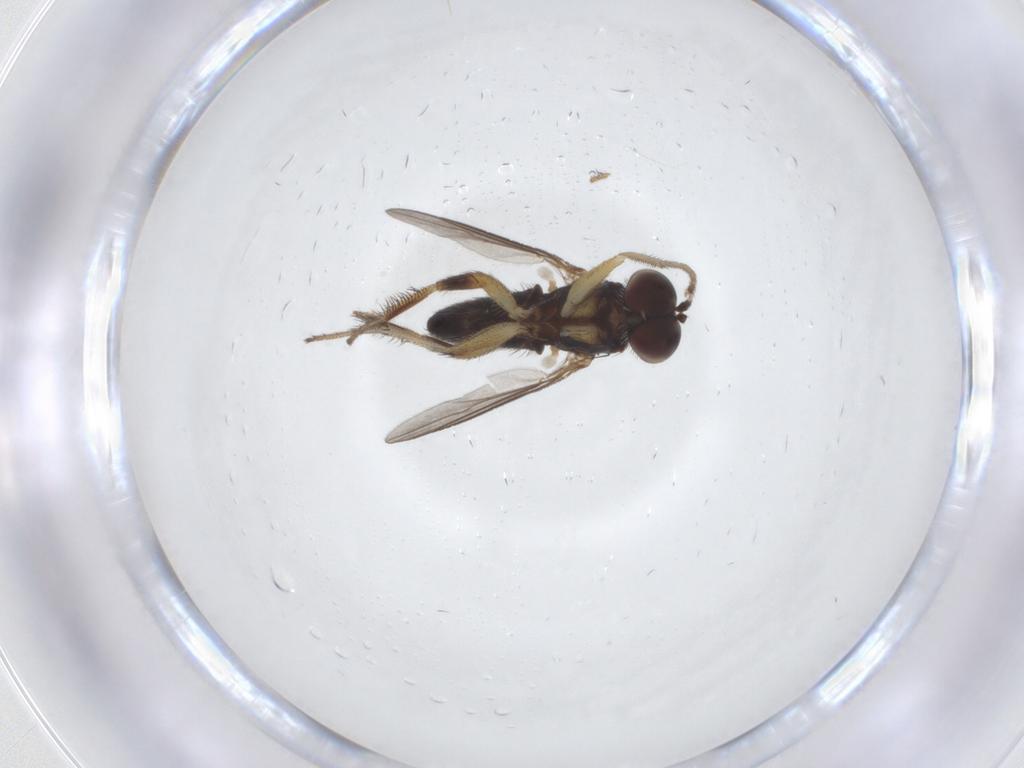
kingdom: Animalia
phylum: Arthropoda
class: Insecta
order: Diptera
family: Dolichopodidae
